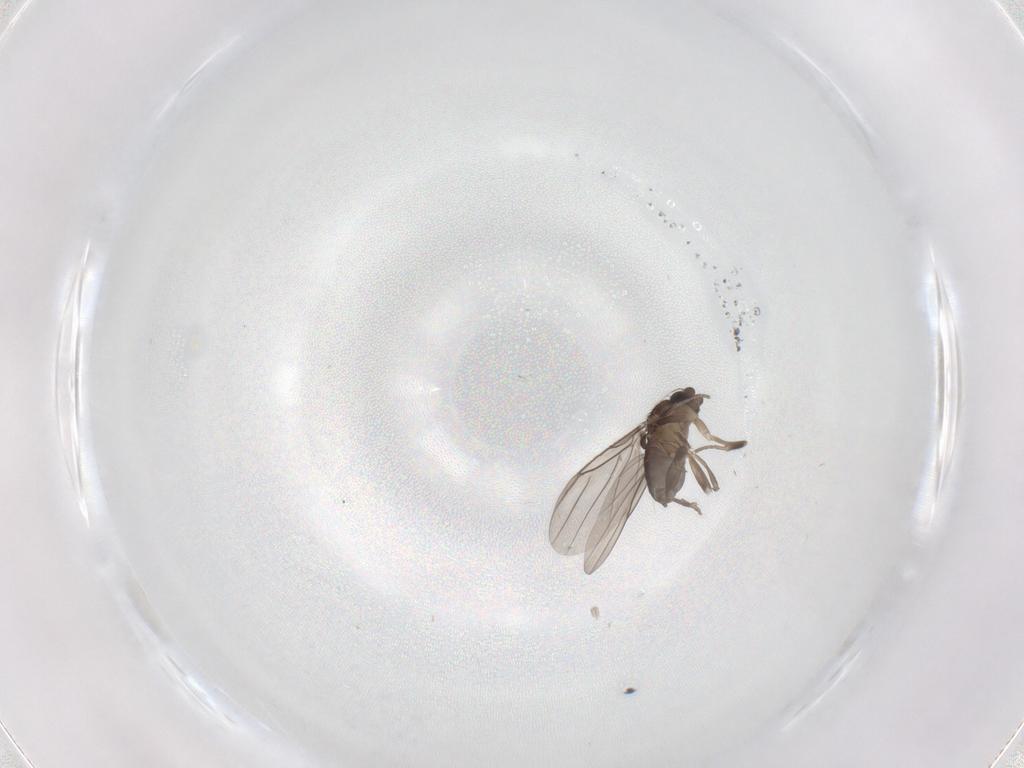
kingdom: Animalia
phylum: Arthropoda
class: Insecta
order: Diptera
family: Phoridae
